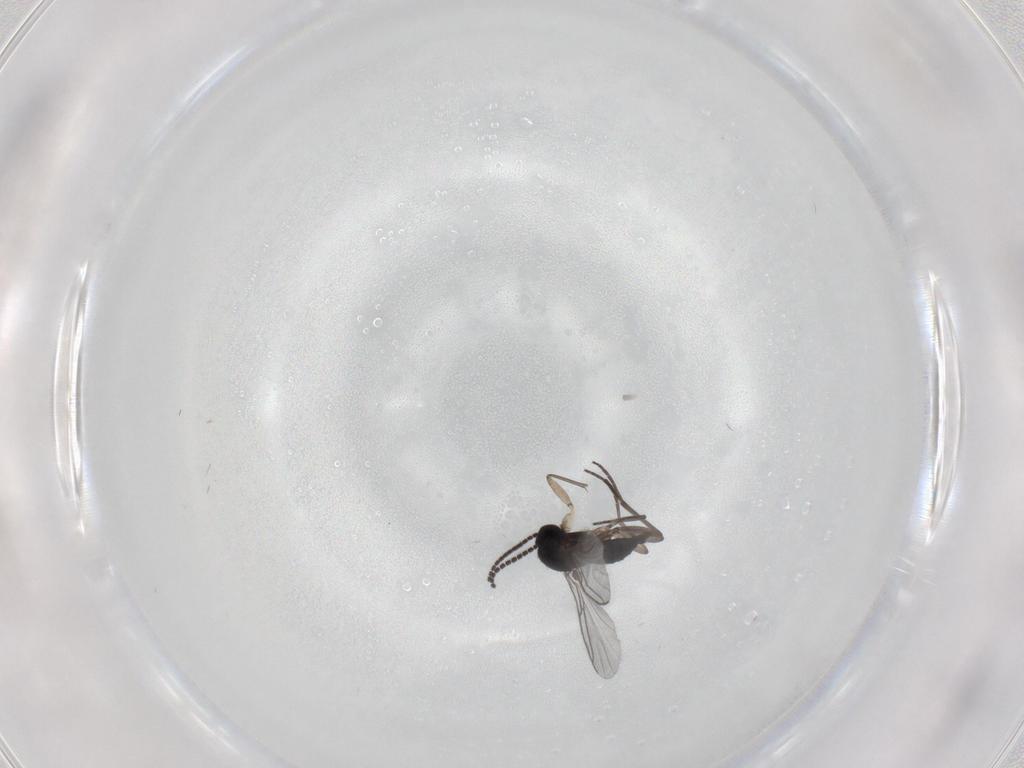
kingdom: Animalia
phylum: Arthropoda
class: Insecta
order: Diptera
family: Sciaridae
